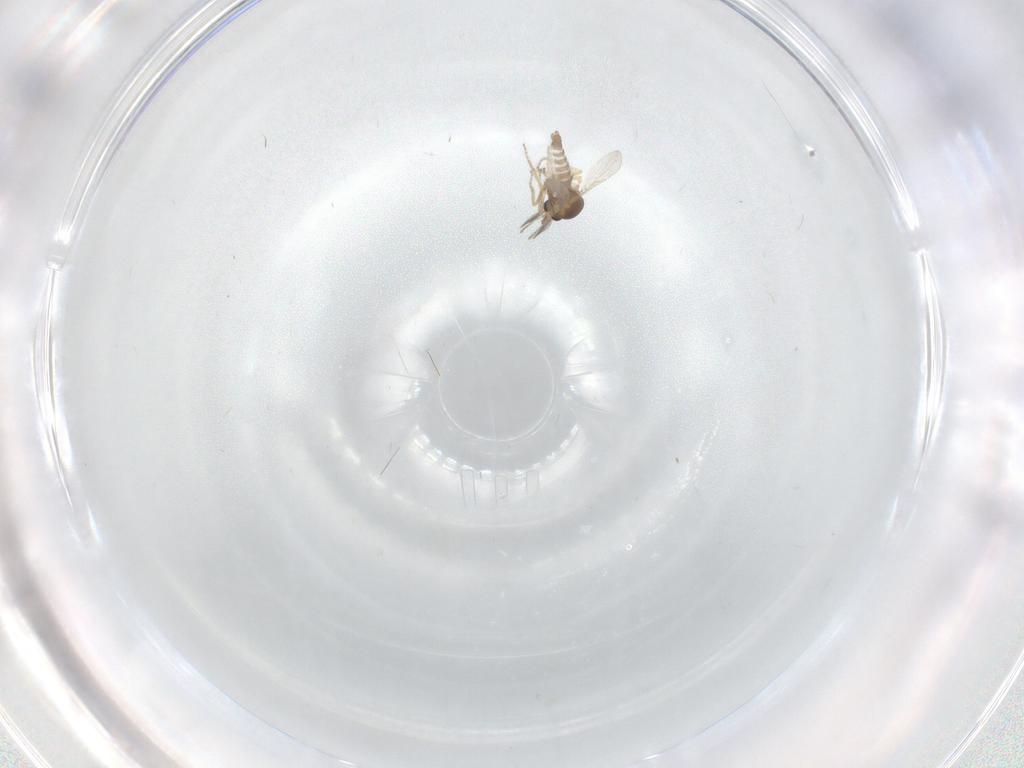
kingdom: Animalia
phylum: Arthropoda
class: Insecta
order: Diptera
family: Ceratopogonidae
